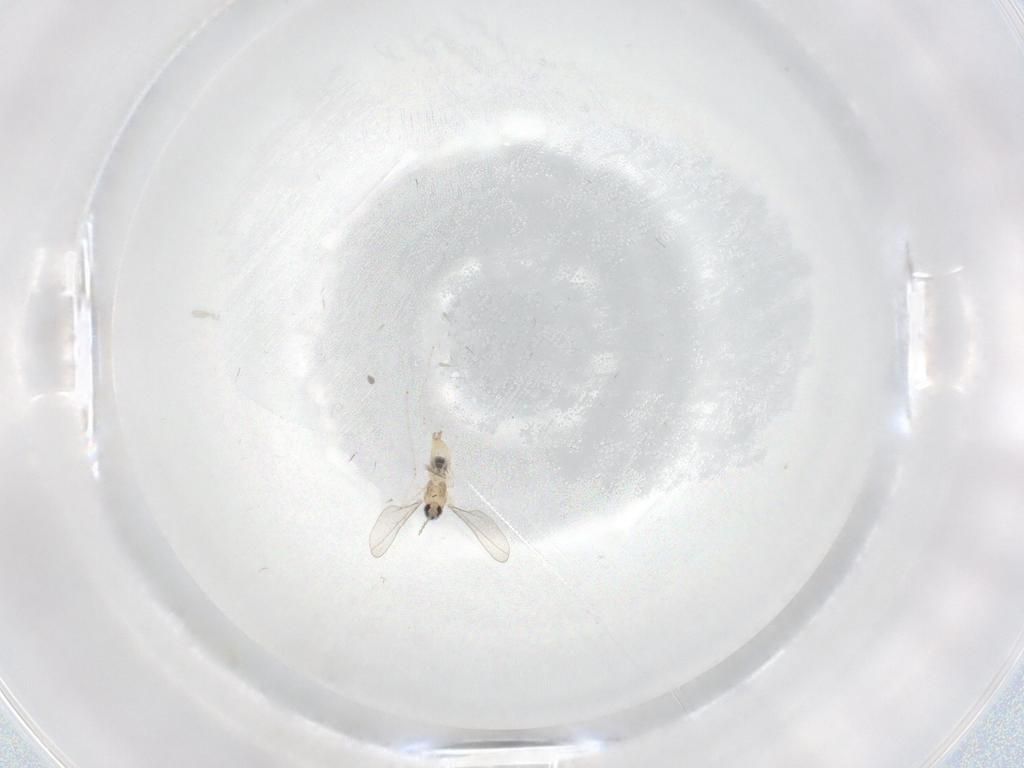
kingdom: Animalia
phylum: Arthropoda
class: Insecta
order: Diptera
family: Cecidomyiidae
